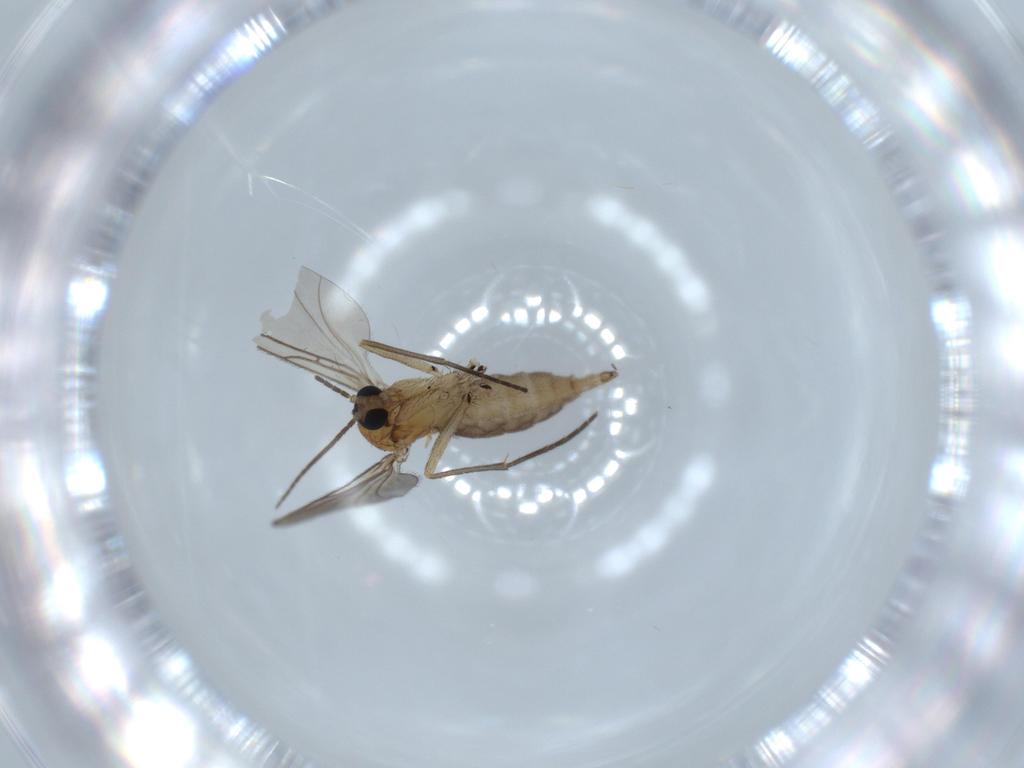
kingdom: Animalia
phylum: Arthropoda
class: Insecta
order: Diptera
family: Sciaridae
